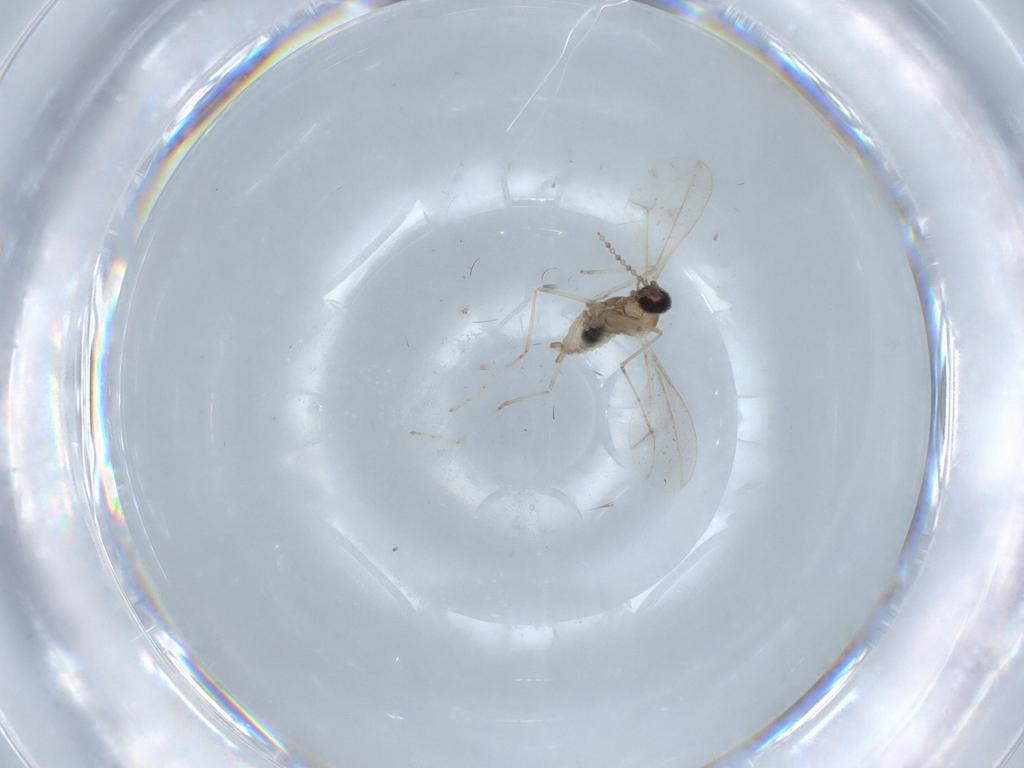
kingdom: Animalia
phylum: Arthropoda
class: Insecta
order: Diptera
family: Cecidomyiidae
